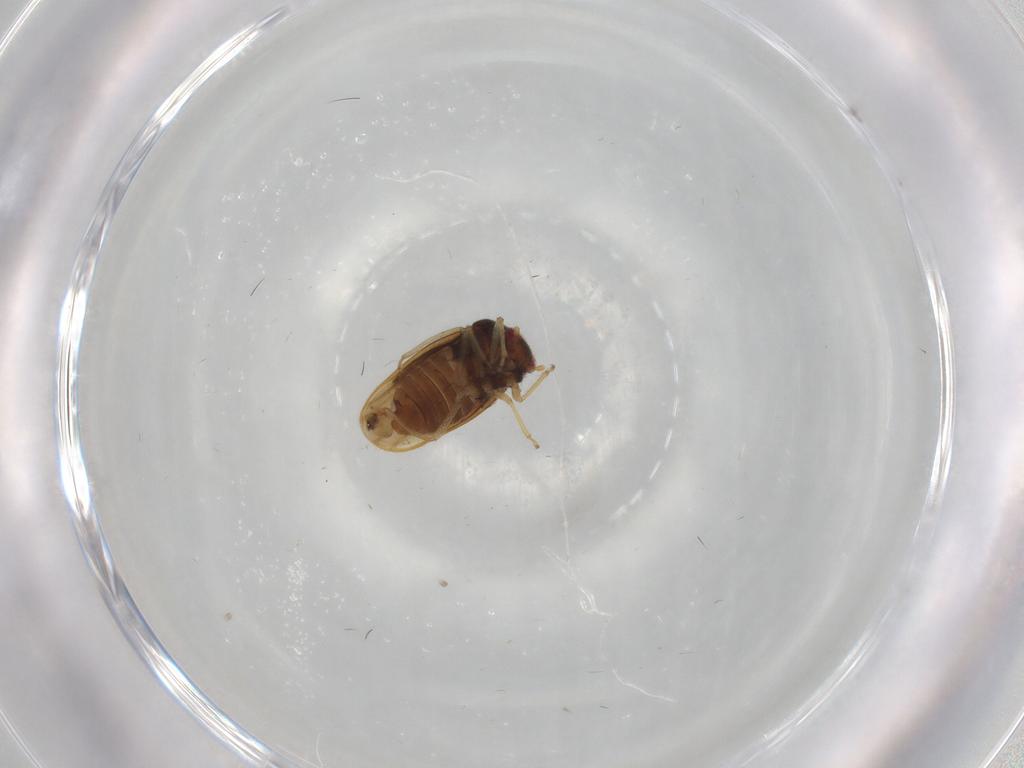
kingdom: Animalia
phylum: Arthropoda
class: Insecta
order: Hemiptera
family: Schizopteridae
